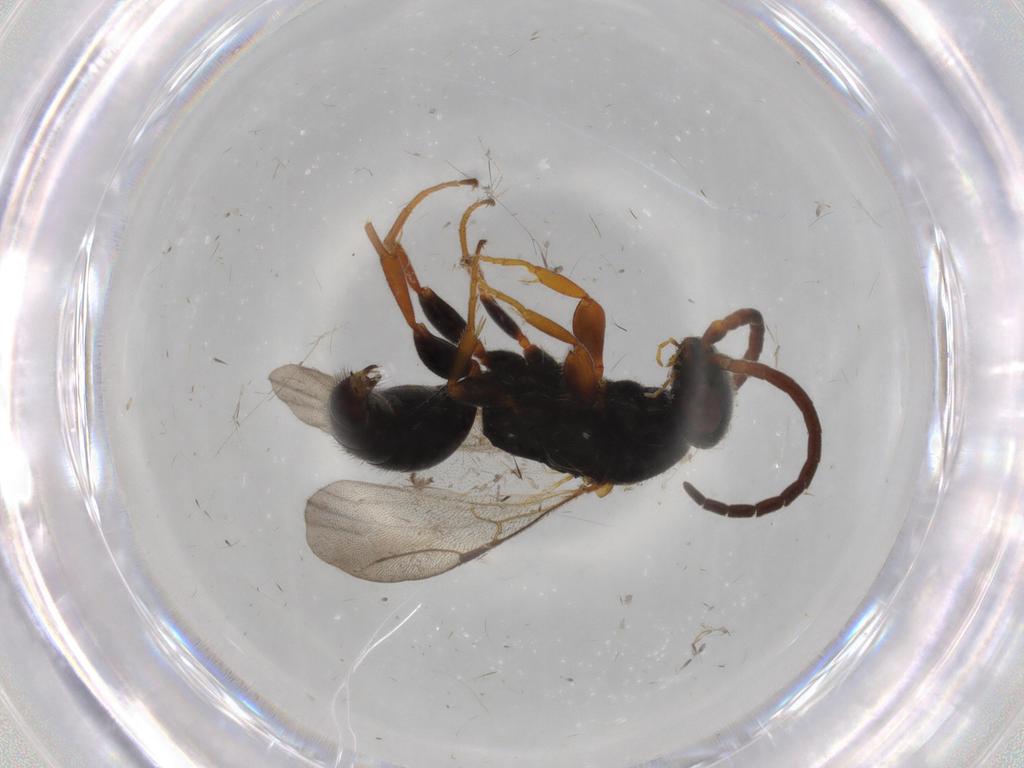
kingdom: Animalia
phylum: Arthropoda
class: Insecta
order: Hymenoptera
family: Bethylidae
